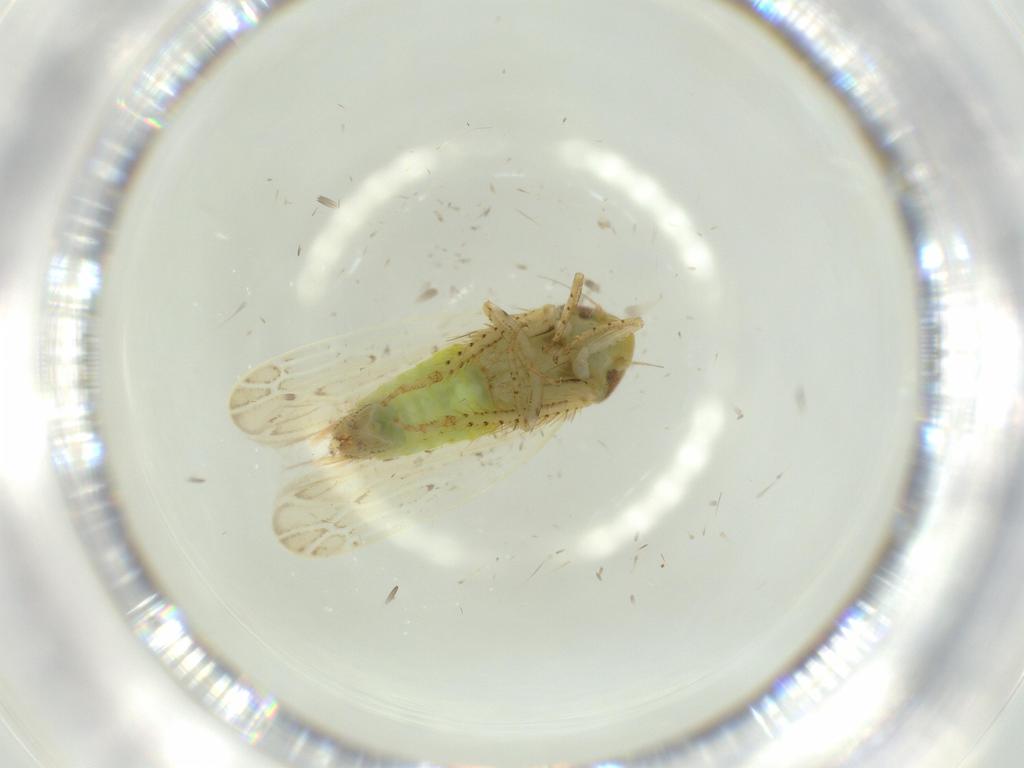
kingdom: Animalia
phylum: Arthropoda
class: Insecta
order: Hemiptera
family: Cicadellidae
